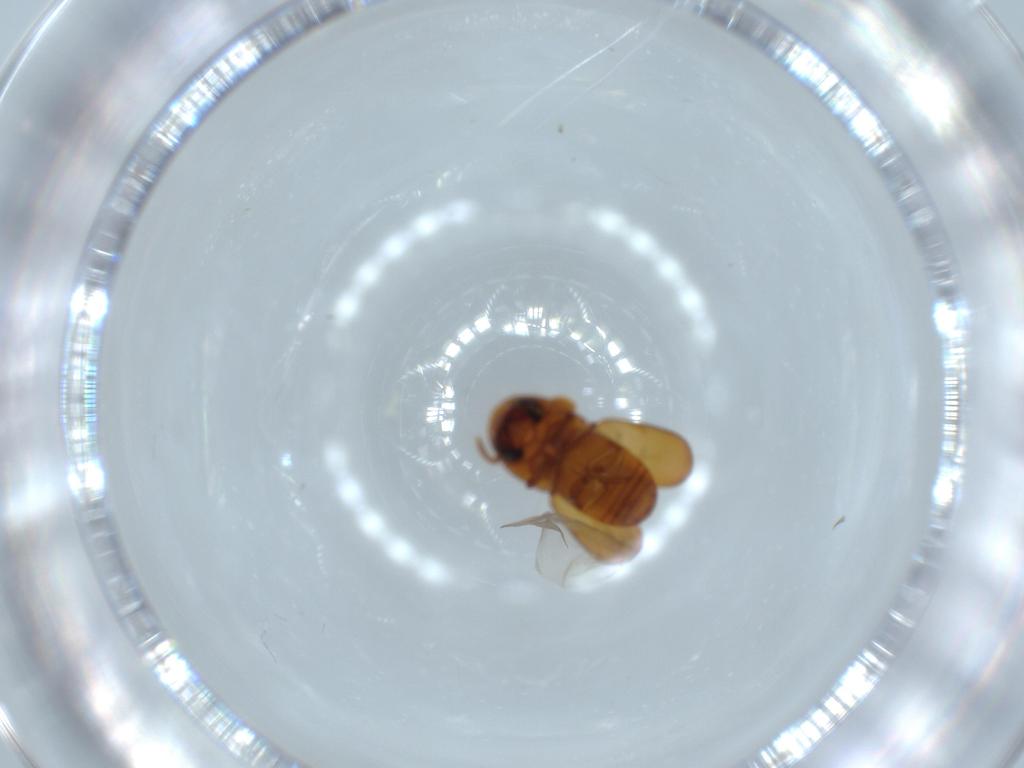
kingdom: Animalia
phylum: Arthropoda
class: Insecta
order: Coleoptera
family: Curculionidae
